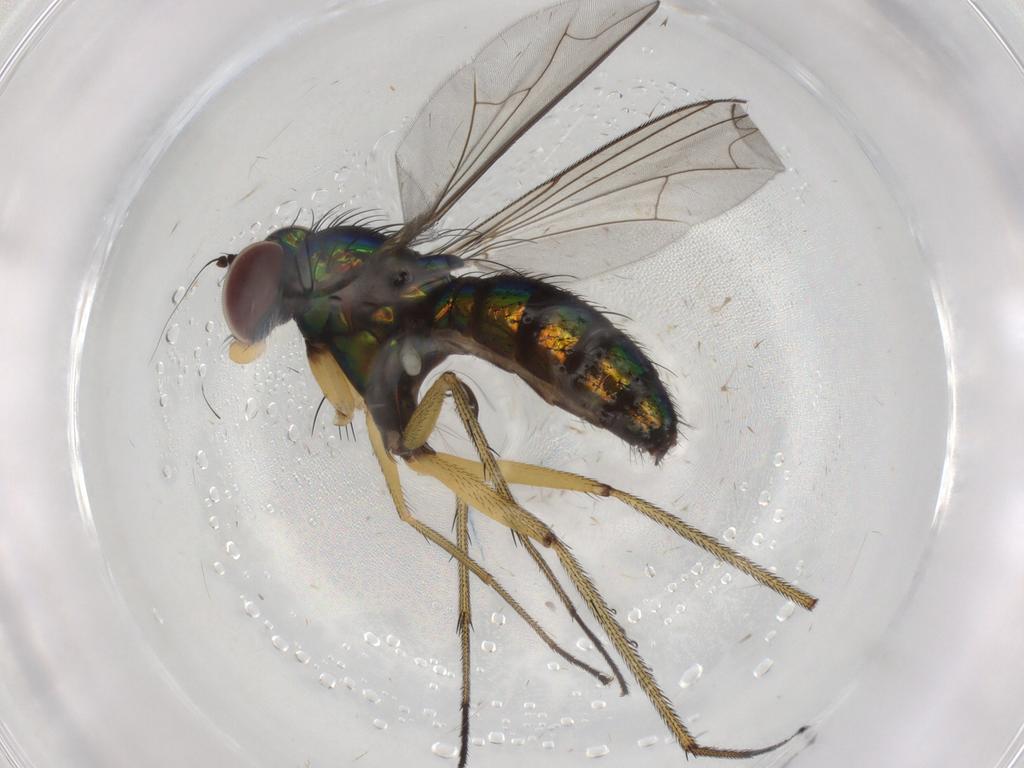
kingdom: Animalia
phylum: Arthropoda
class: Insecta
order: Diptera
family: Dolichopodidae
